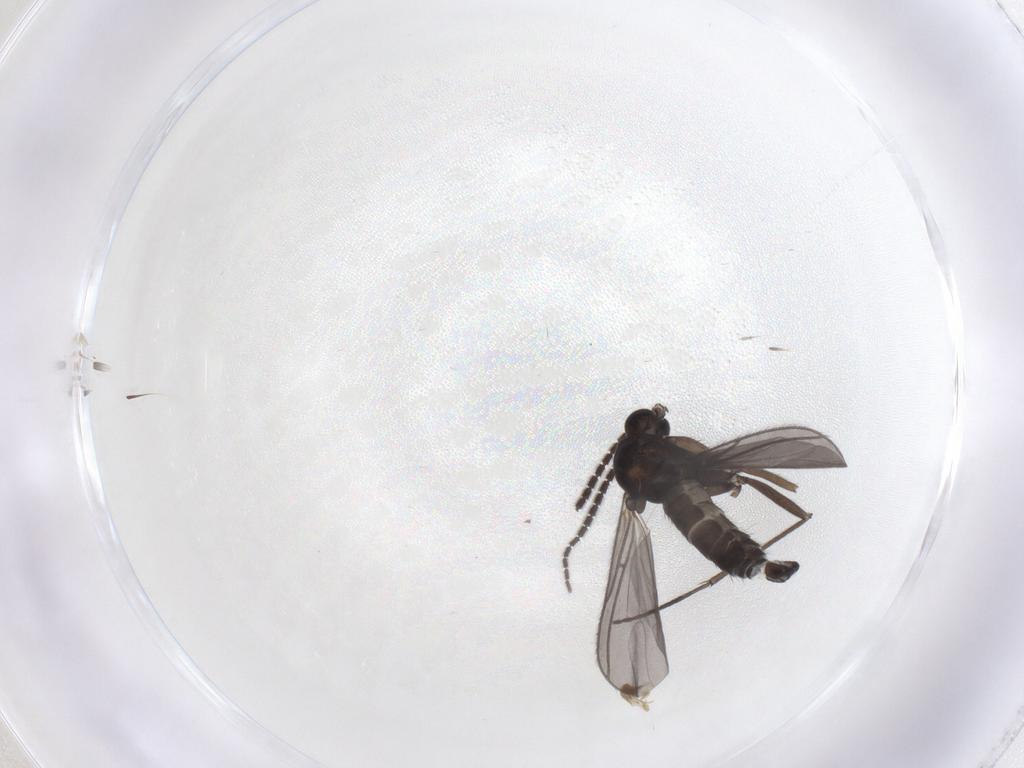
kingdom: Animalia
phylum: Arthropoda
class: Insecta
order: Diptera
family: Sciaridae
